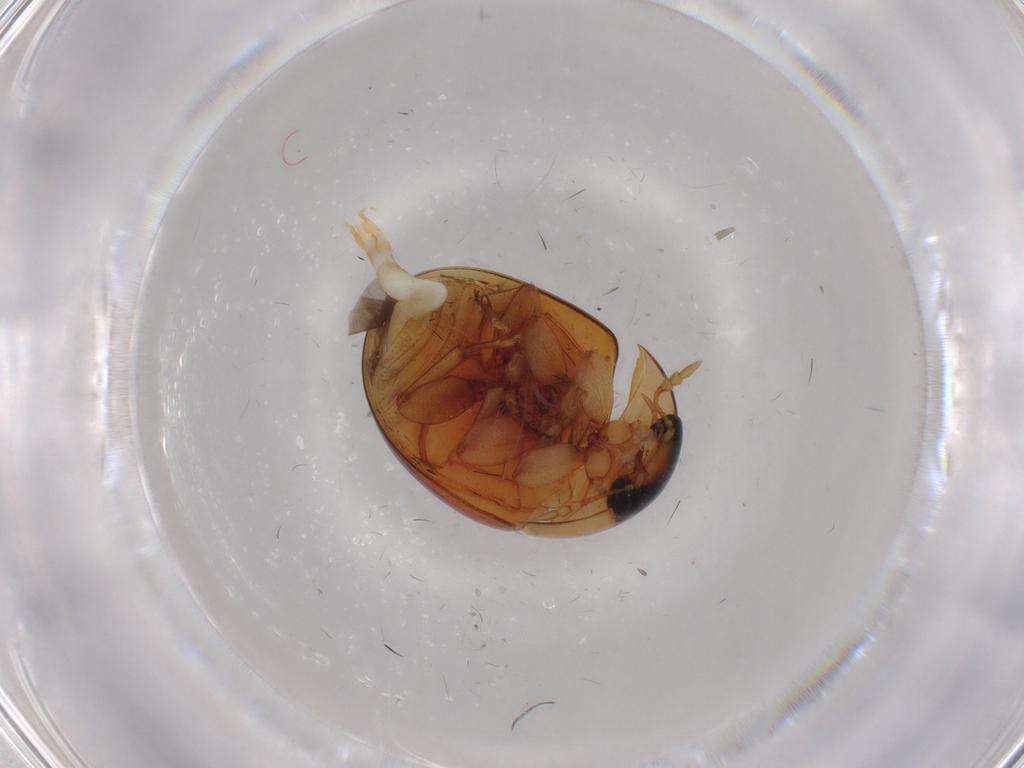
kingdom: Animalia
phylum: Arthropoda
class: Insecta
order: Coleoptera
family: Phalacridae
